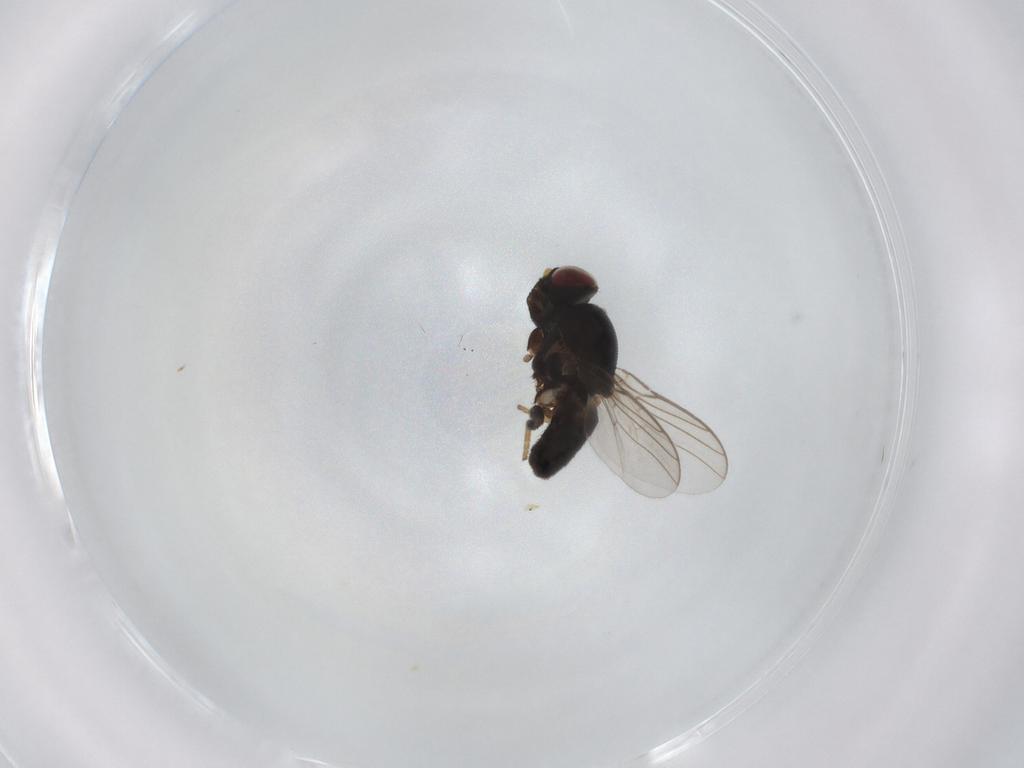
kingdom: Animalia
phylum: Arthropoda
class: Insecta
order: Diptera
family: Chloropidae
